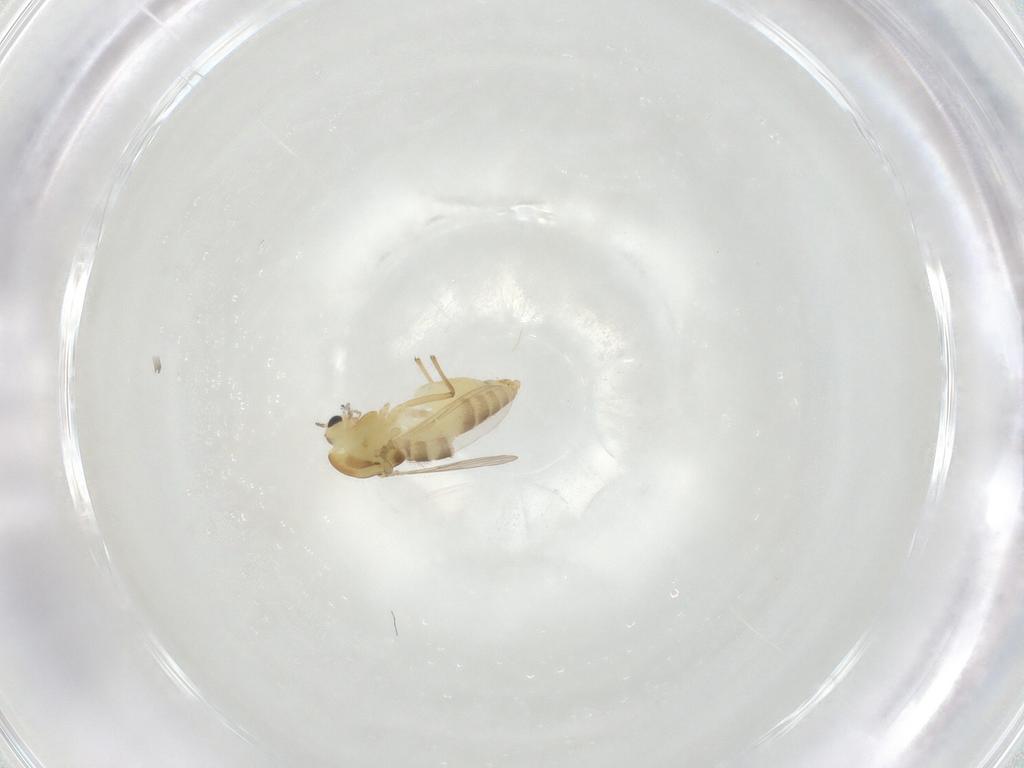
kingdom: Animalia
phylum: Arthropoda
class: Insecta
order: Diptera
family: Chironomidae
